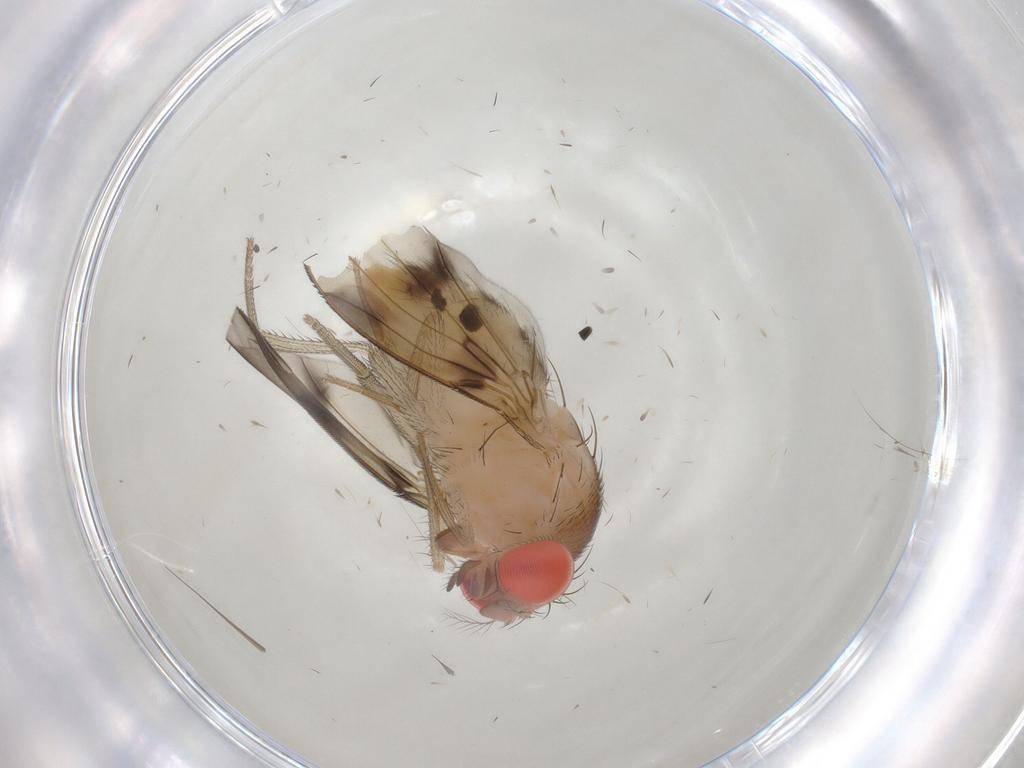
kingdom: Animalia
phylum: Arthropoda
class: Insecta
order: Diptera
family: Drosophilidae
